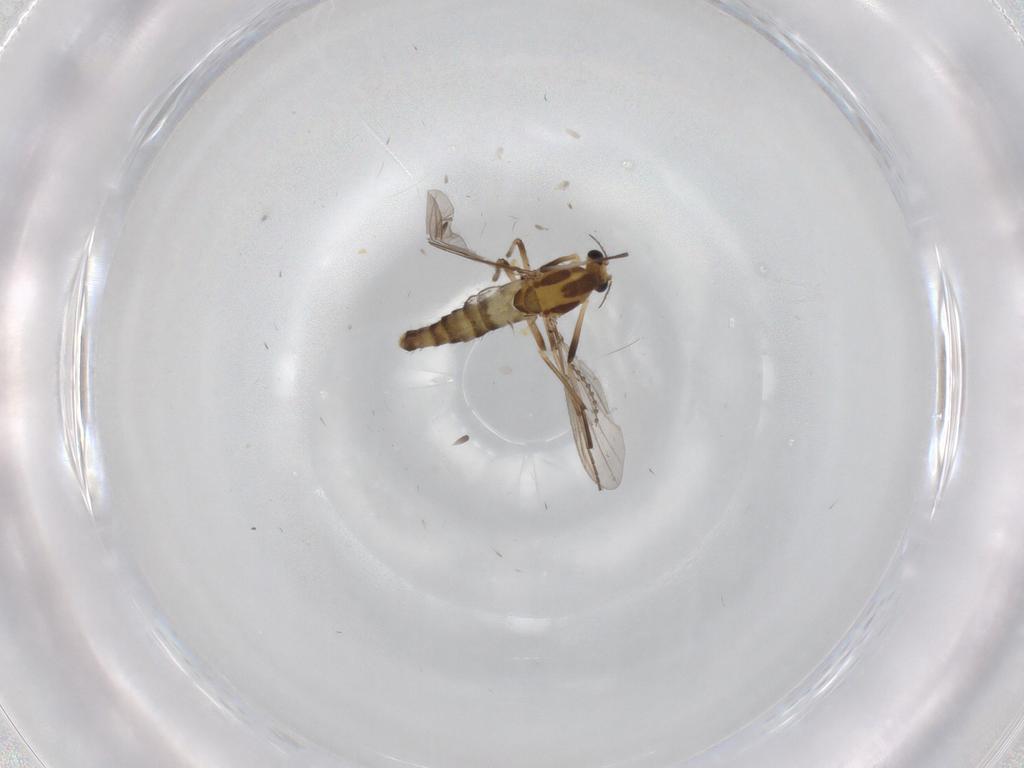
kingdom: Animalia
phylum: Arthropoda
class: Insecta
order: Diptera
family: Chironomidae
